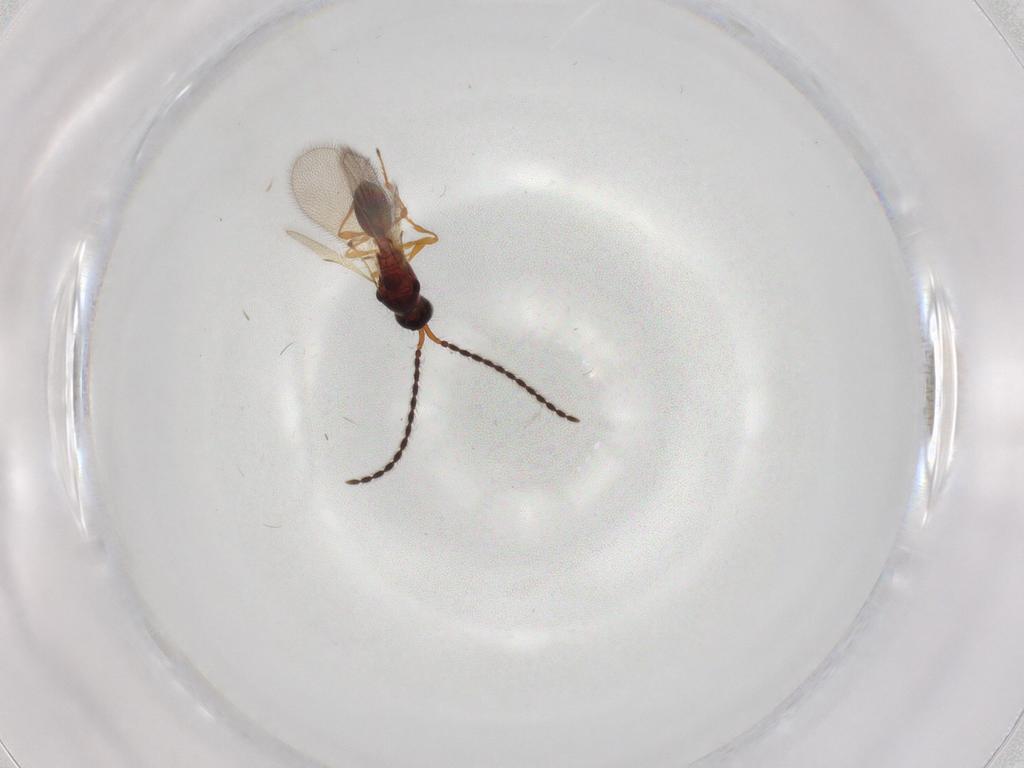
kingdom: Animalia
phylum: Arthropoda
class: Insecta
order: Hymenoptera
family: Diapriidae
